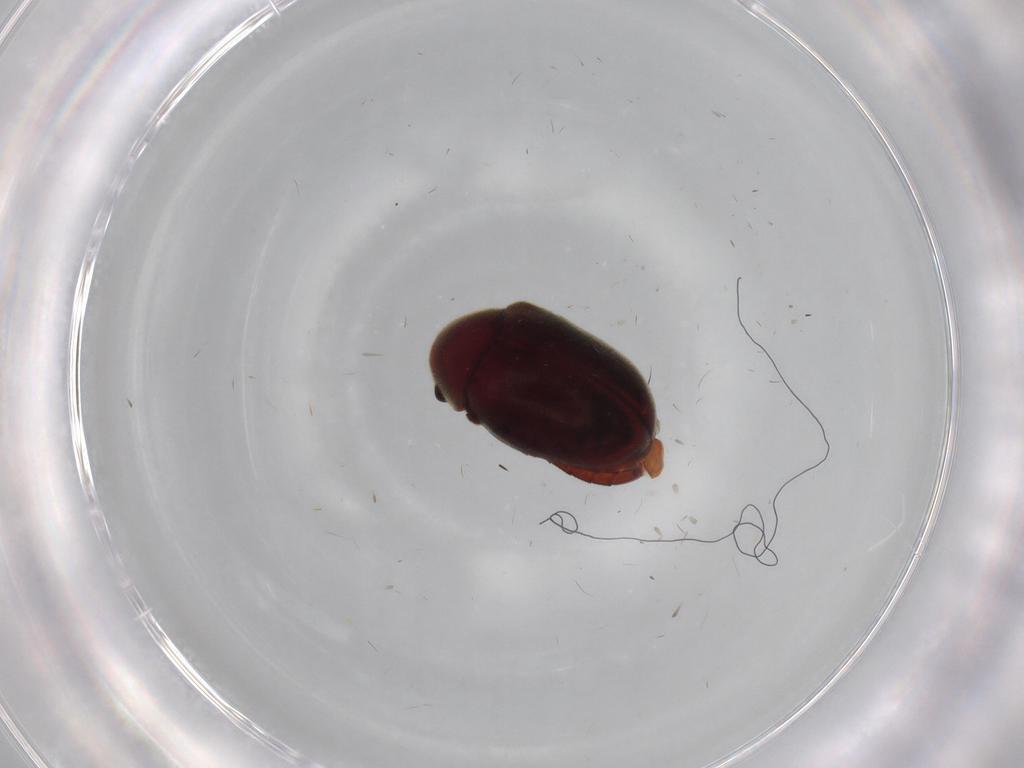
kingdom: Animalia
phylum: Arthropoda
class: Insecta
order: Coleoptera
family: Ptinidae
